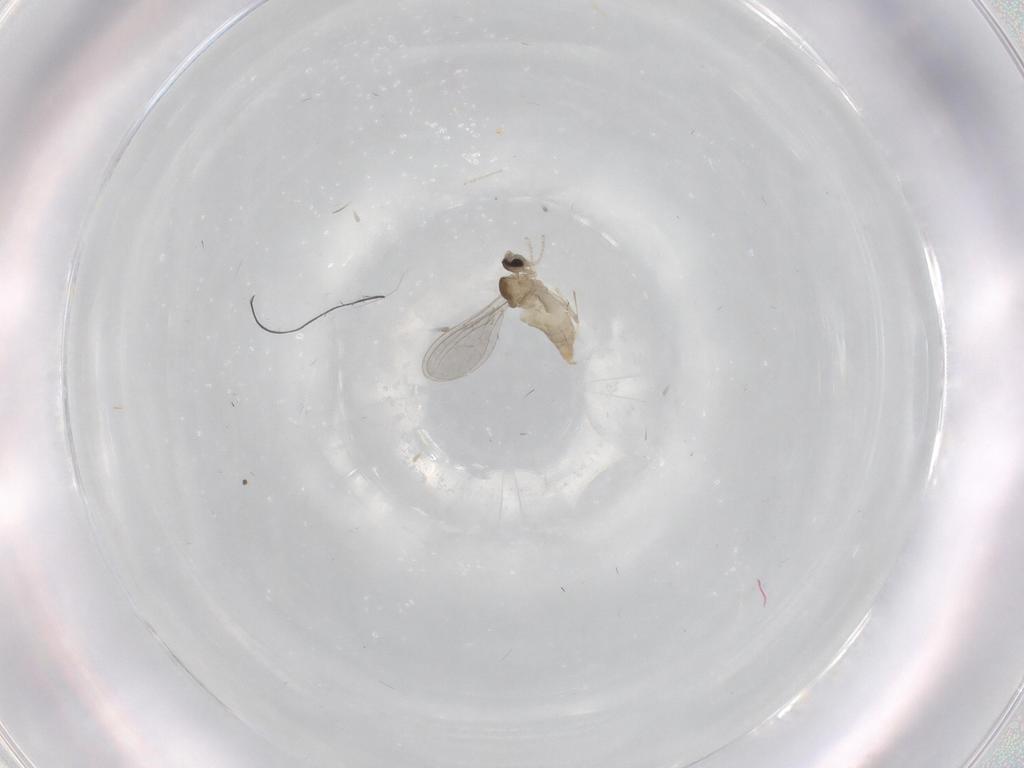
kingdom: Animalia
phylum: Arthropoda
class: Insecta
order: Diptera
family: Cecidomyiidae
